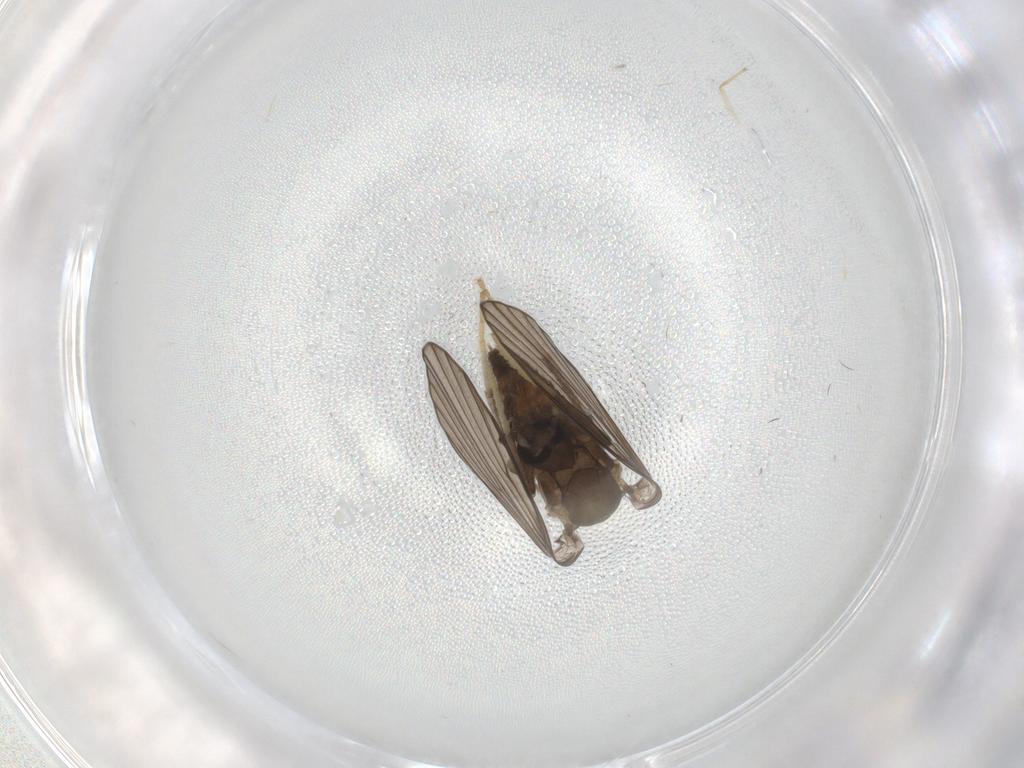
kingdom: Animalia
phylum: Arthropoda
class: Insecta
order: Diptera
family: Psychodidae
